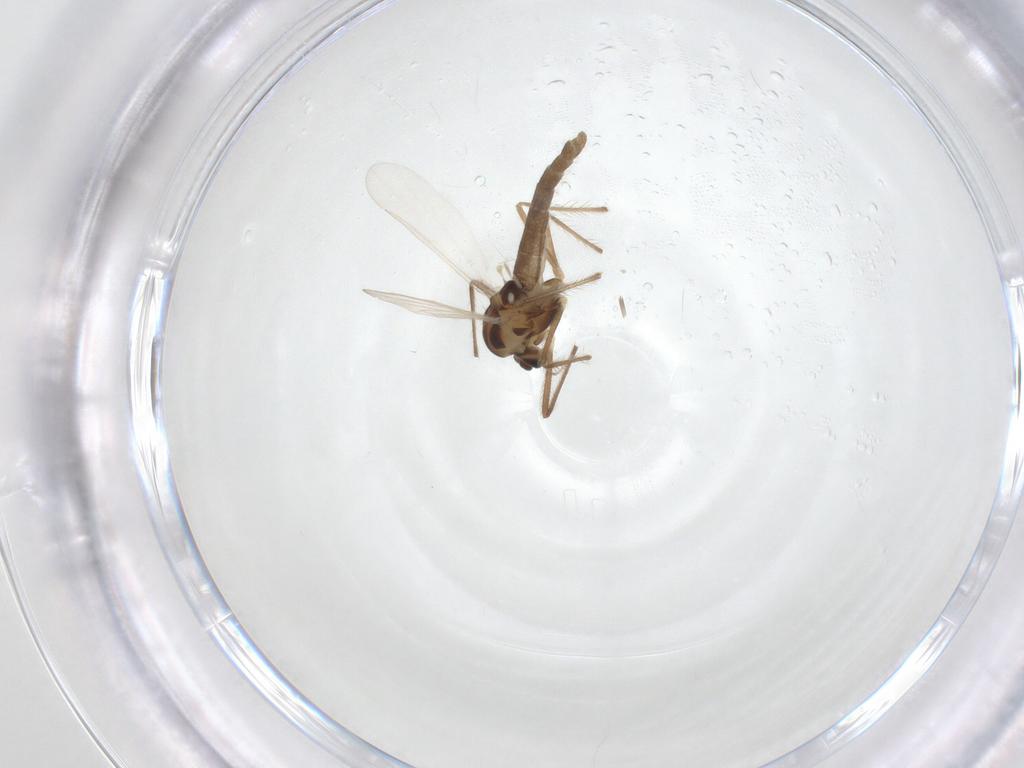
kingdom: Animalia
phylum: Arthropoda
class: Insecta
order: Diptera
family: Chironomidae
